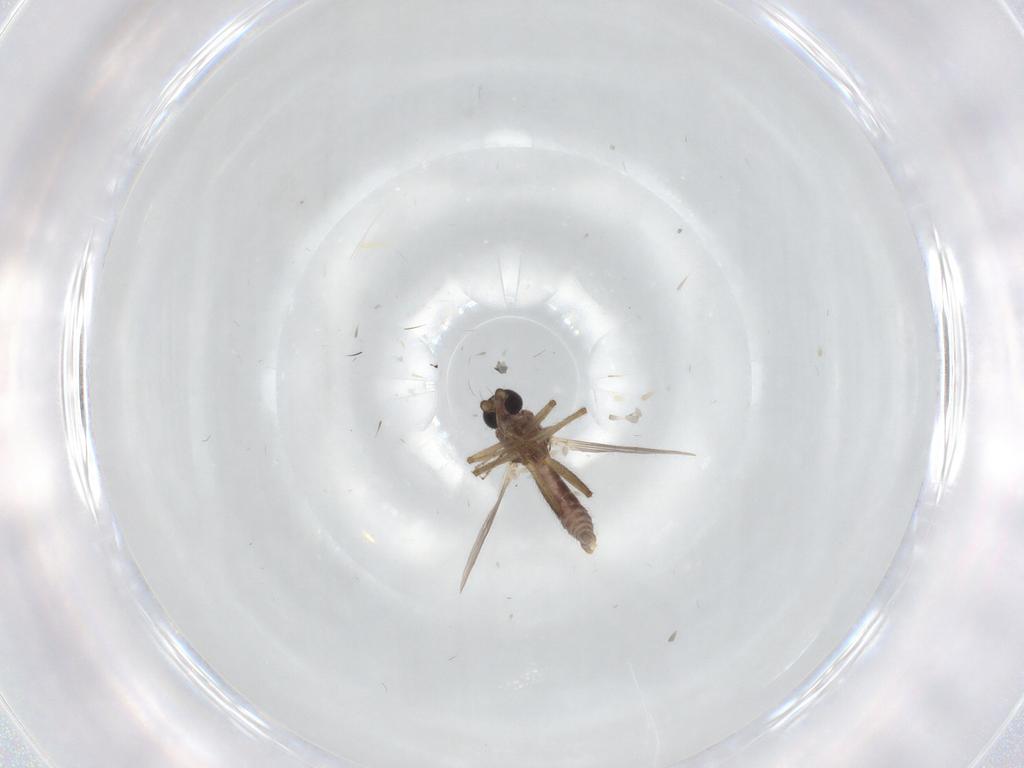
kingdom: Animalia
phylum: Arthropoda
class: Insecta
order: Diptera
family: Ceratopogonidae
